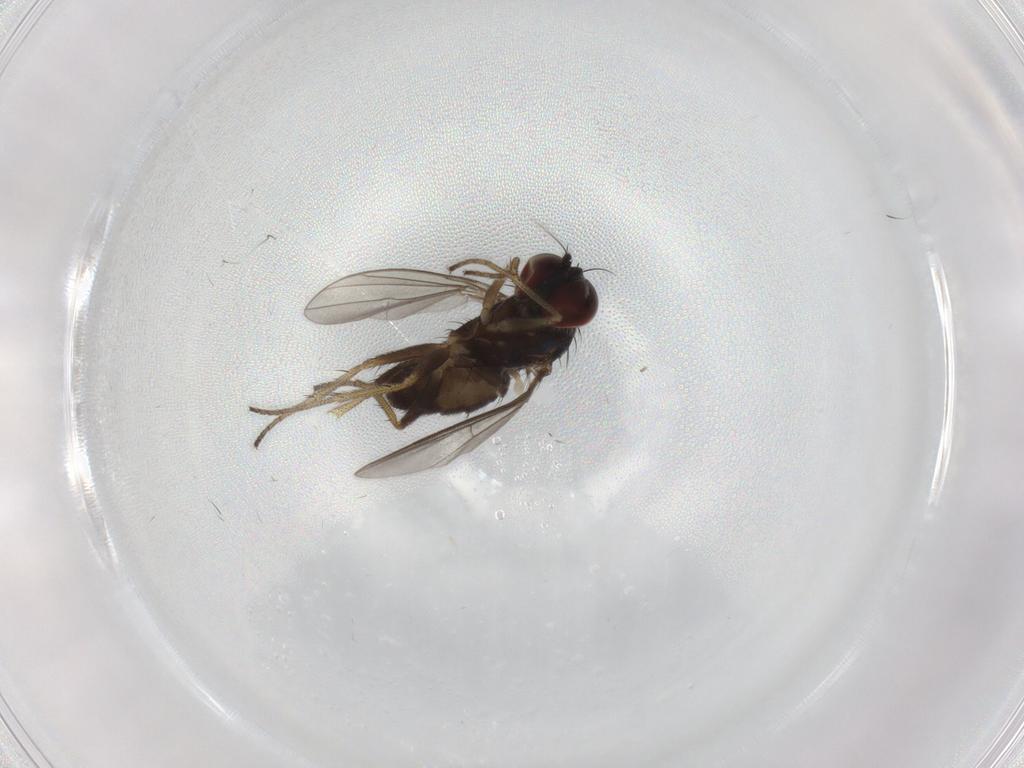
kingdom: Animalia
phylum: Arthropoda
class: Insecta
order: Diptera
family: Dolichopodidae
